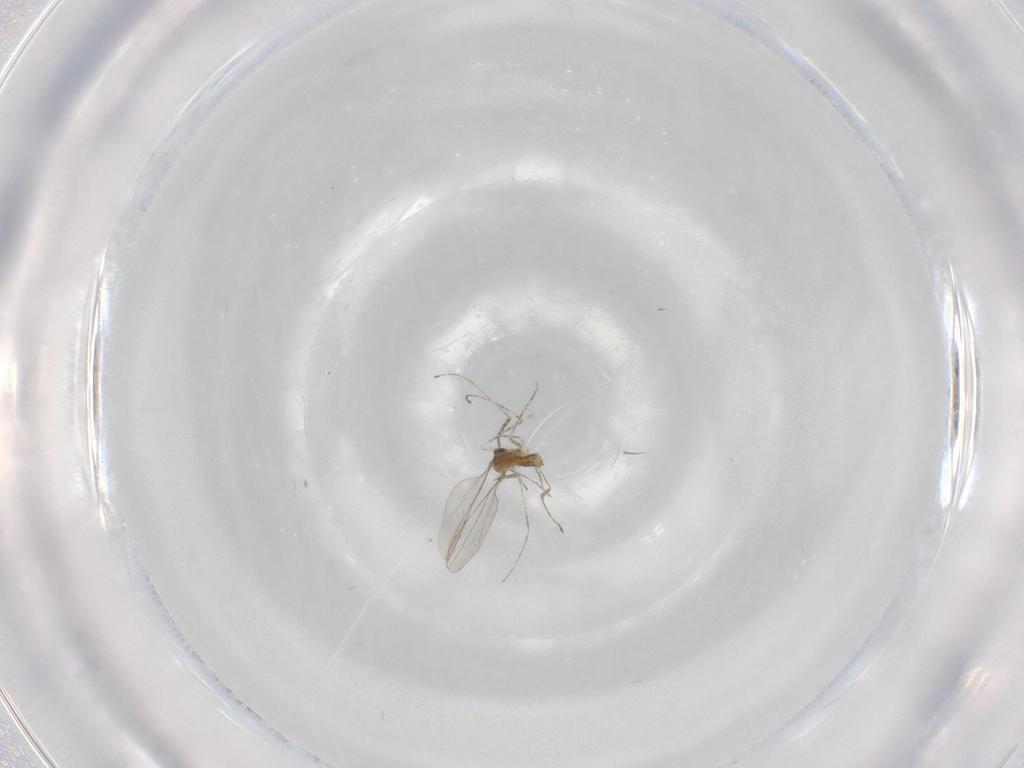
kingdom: Animalia
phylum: Arthropoda
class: Insecta
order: Diptera
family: Cecidomyiidae
